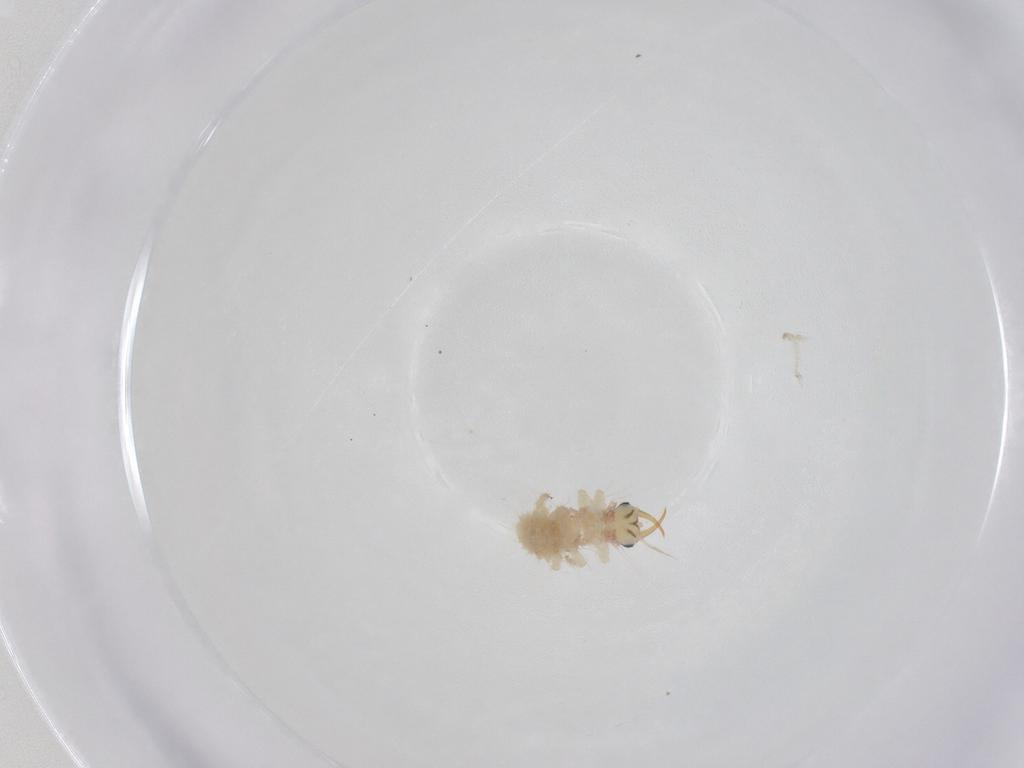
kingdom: Animalia
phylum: Arthropoda
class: Insecta
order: Neuroptera
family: Chrysopidae
